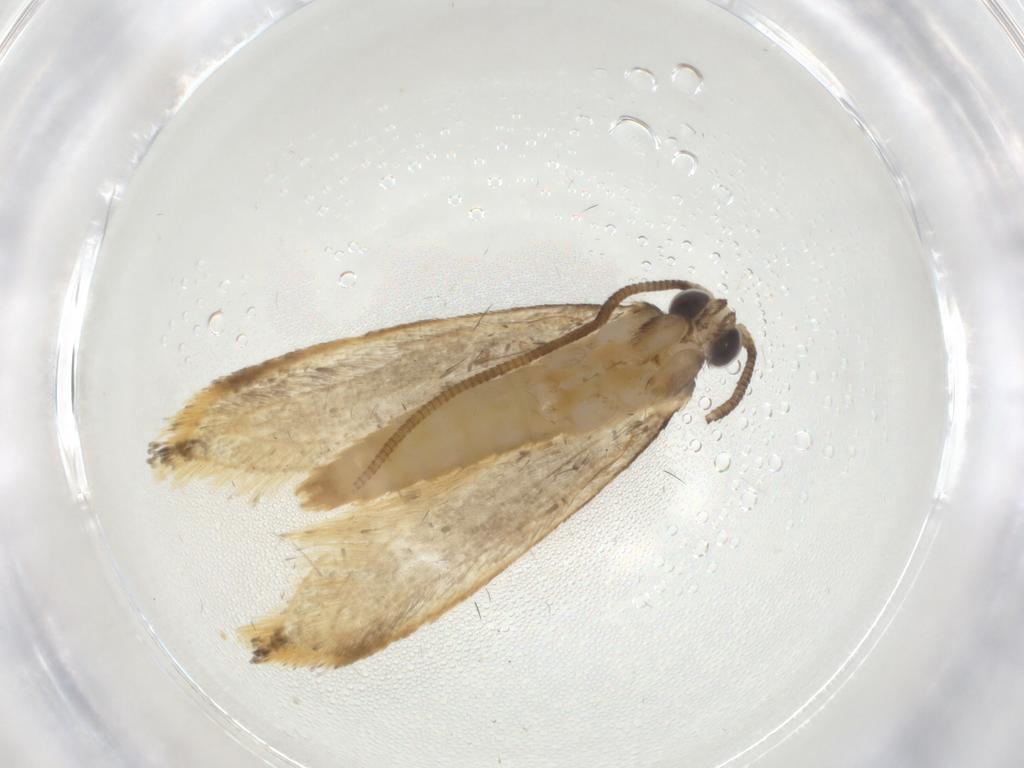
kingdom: Animalia
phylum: Arthropoda
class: Insecta
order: Lepidoptera
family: Tineidae
